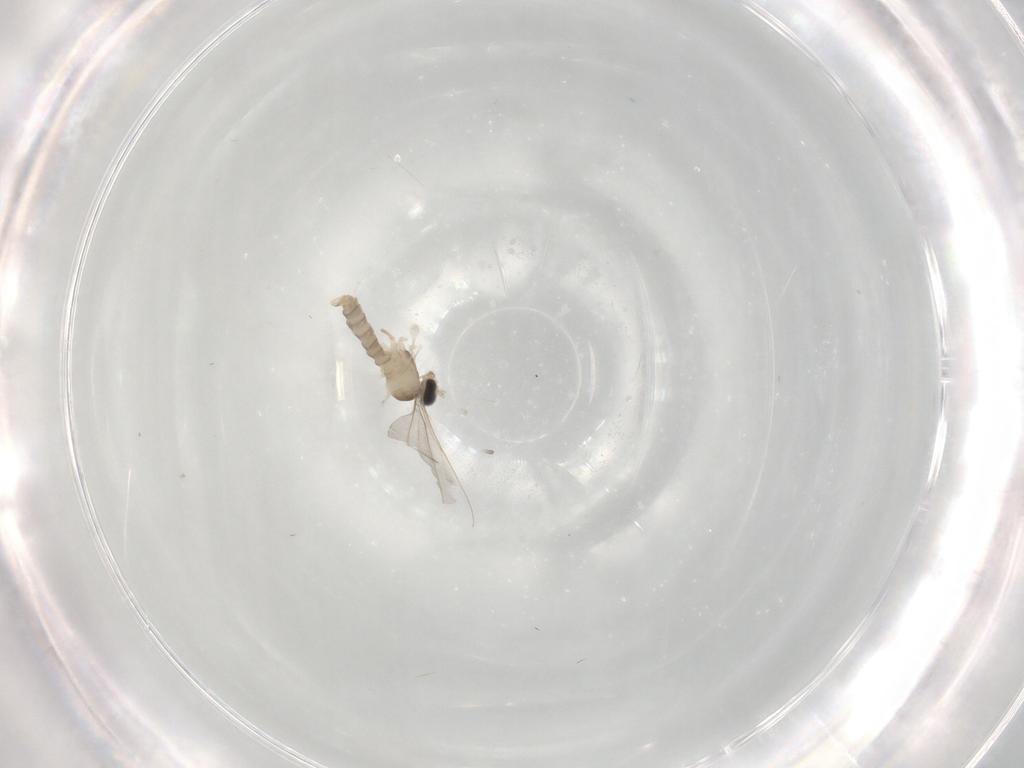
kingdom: Animalia
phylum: Arthropoda
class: Insecta
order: Diptera
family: Cecidomyiidae
